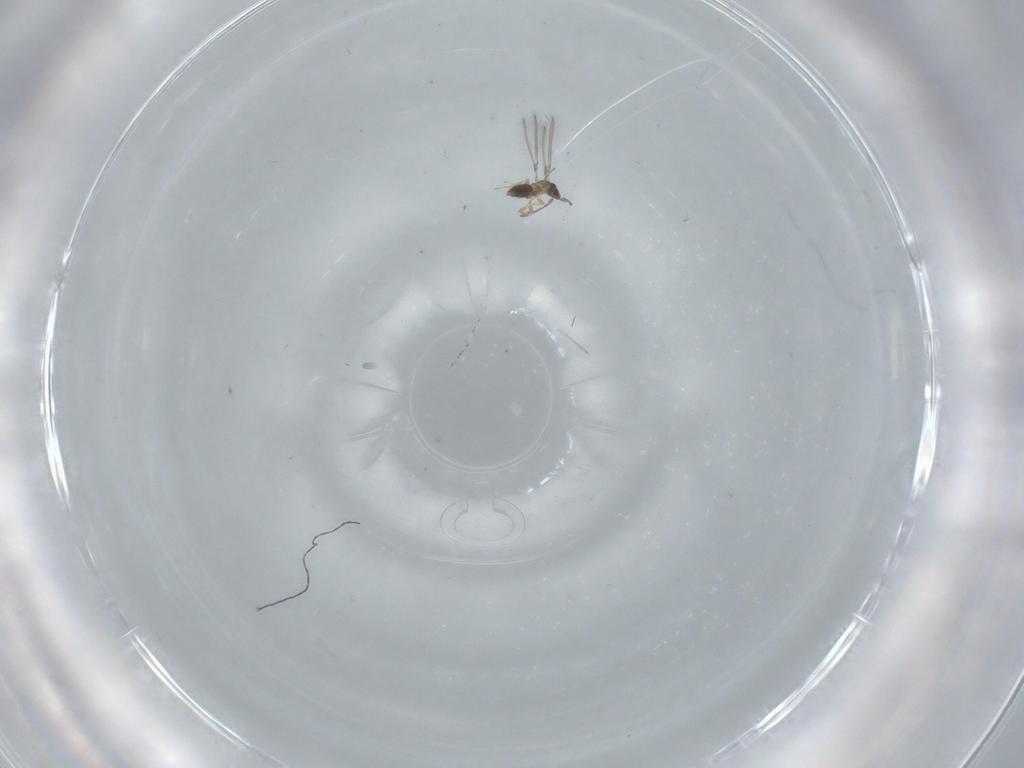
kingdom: Animalia
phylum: Arthropoda
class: Insecta
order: Hymenoptera
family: Mymaridae
